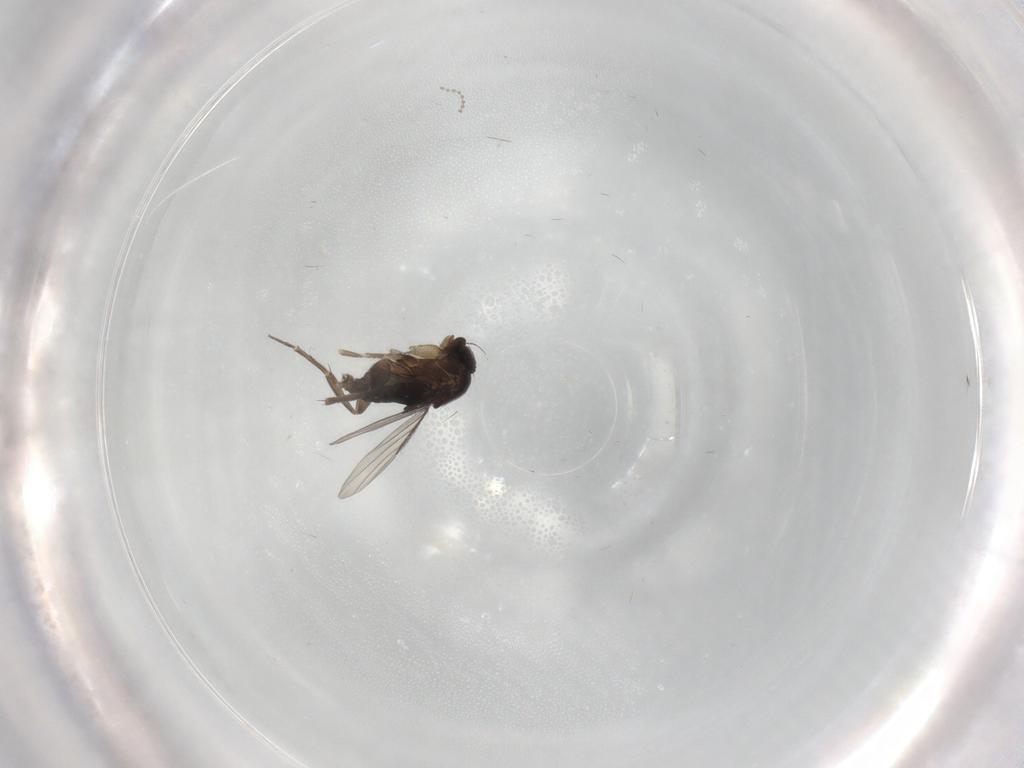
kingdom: Animalia
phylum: Arthropoda
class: Insecta
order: Diptera
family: Phoridae
